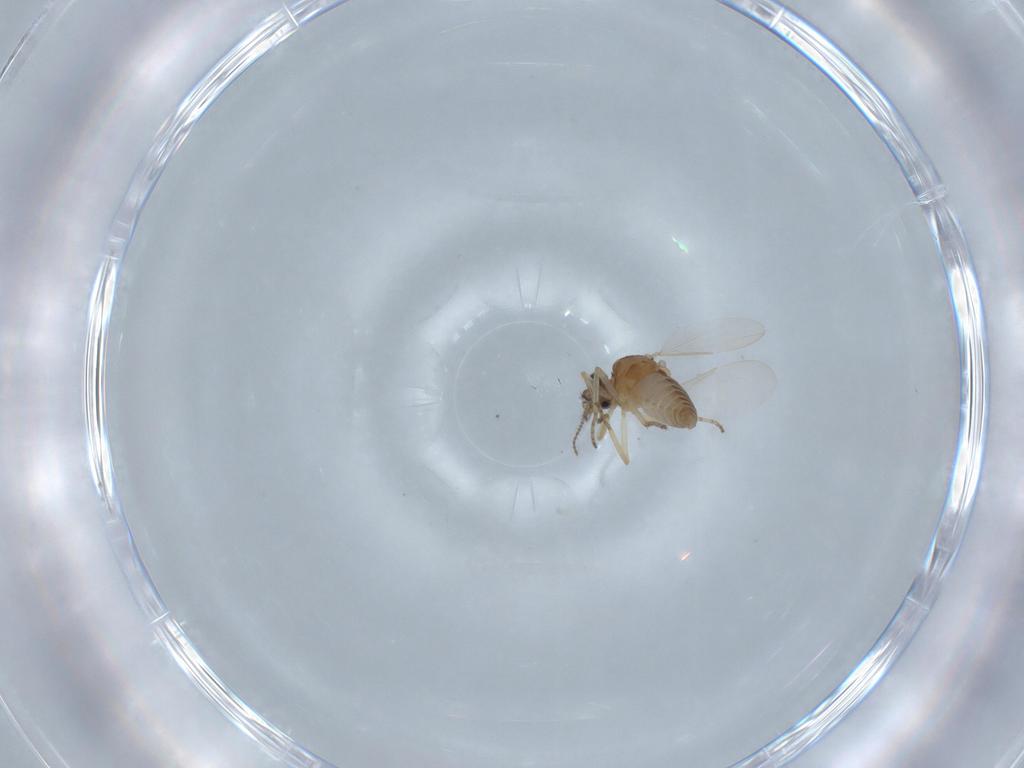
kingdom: Animalia
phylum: Arthropoda
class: Insecta
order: Diptera
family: Ceratopogonidae
